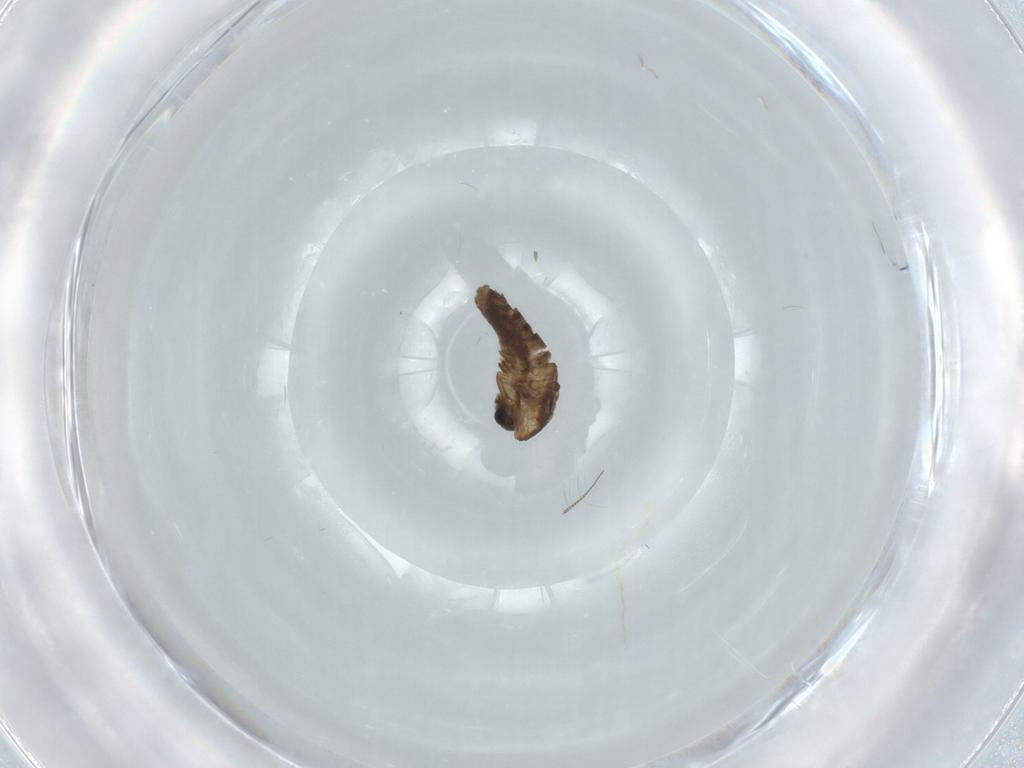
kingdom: Animalia
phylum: Arthropoda
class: Insecta
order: Diptera
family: Chironomidae
